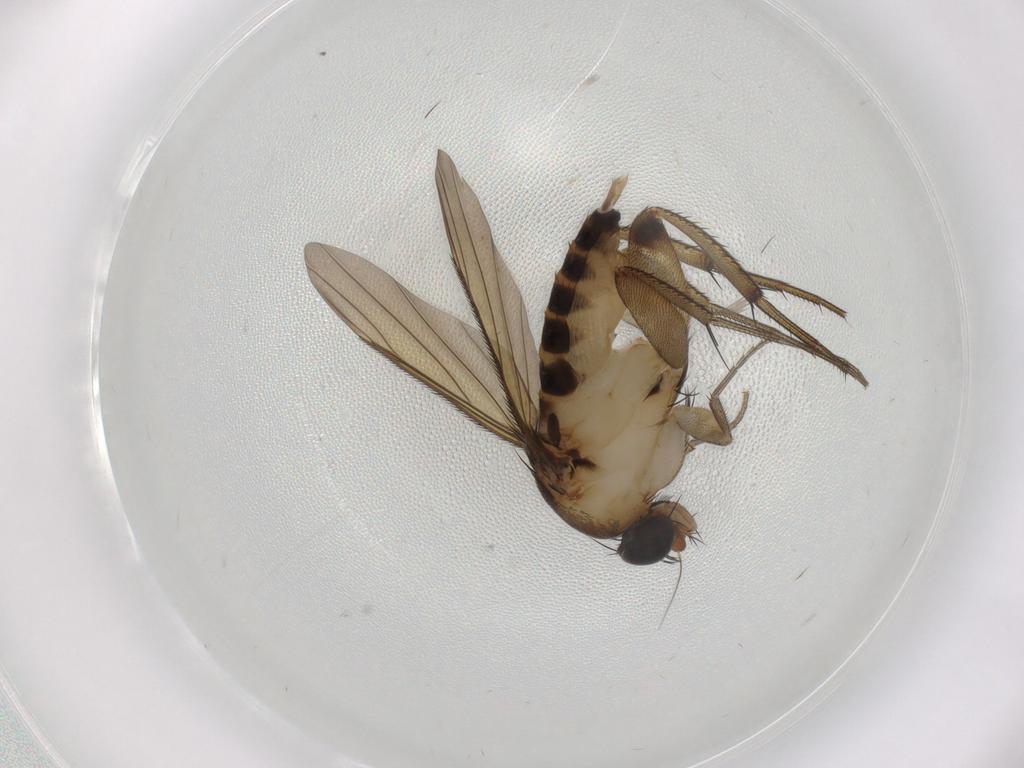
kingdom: Animalia
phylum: Arthropoda
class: Insecta
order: Diptera
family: Phoridae
